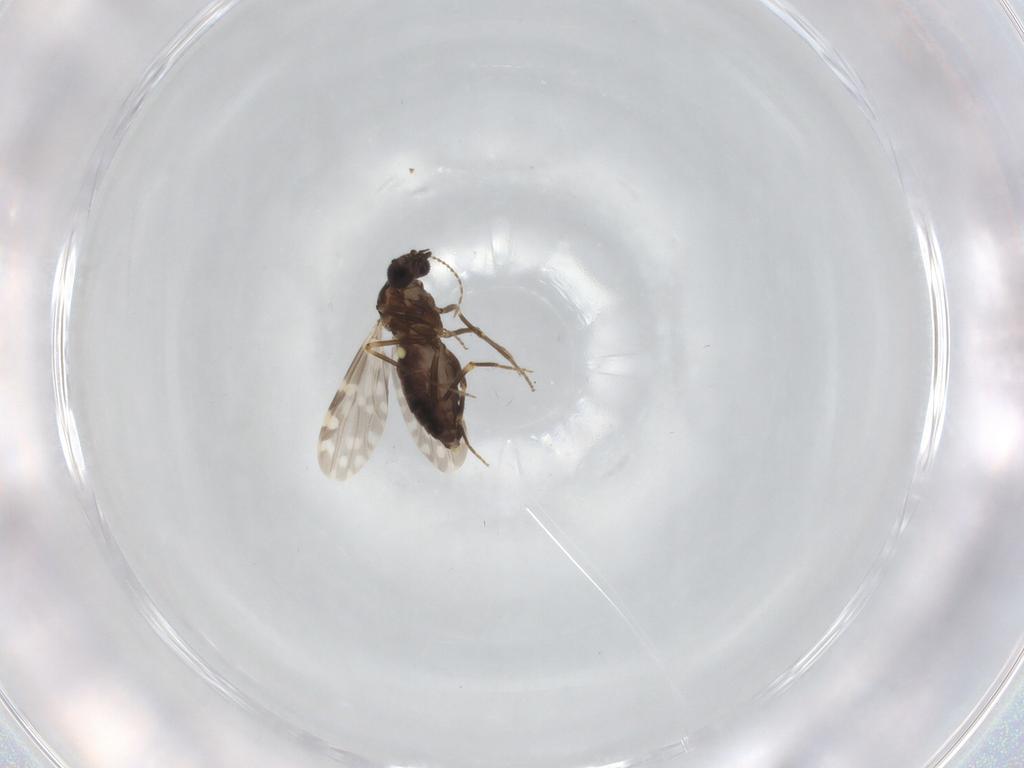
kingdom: Animalia
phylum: Arthropoda
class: Insecta
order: Diptera
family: Ceratopogonidae
